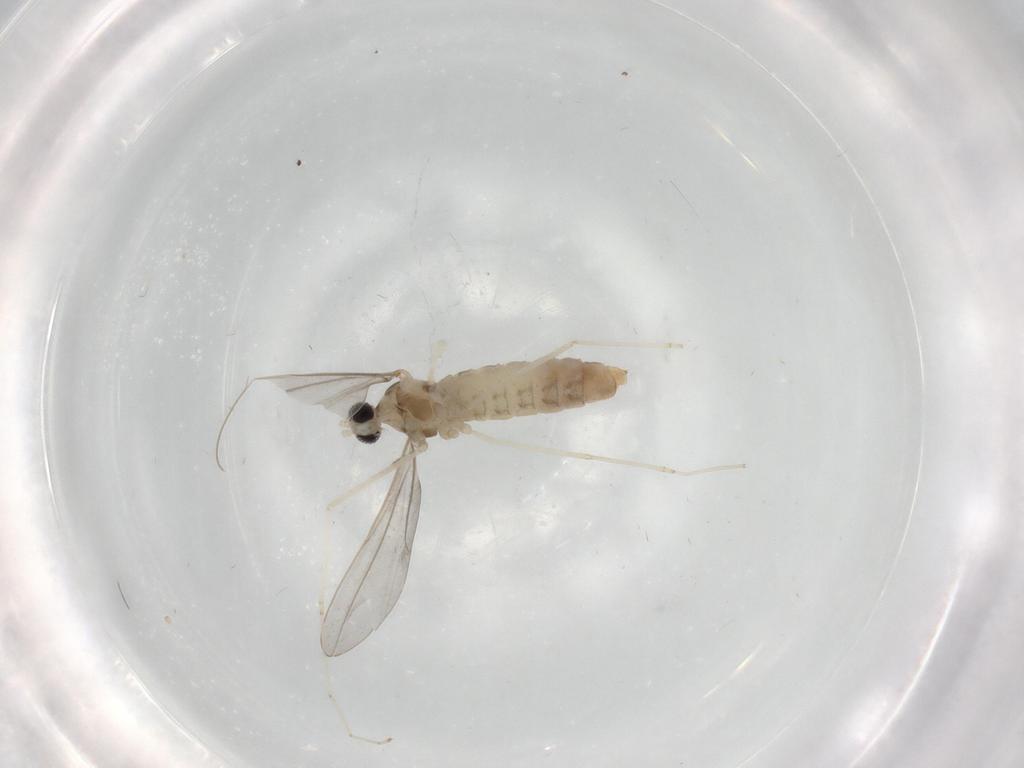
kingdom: Animalia
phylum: Arthropoda
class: Insecta
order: Diptera
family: Cecidomyiidae
